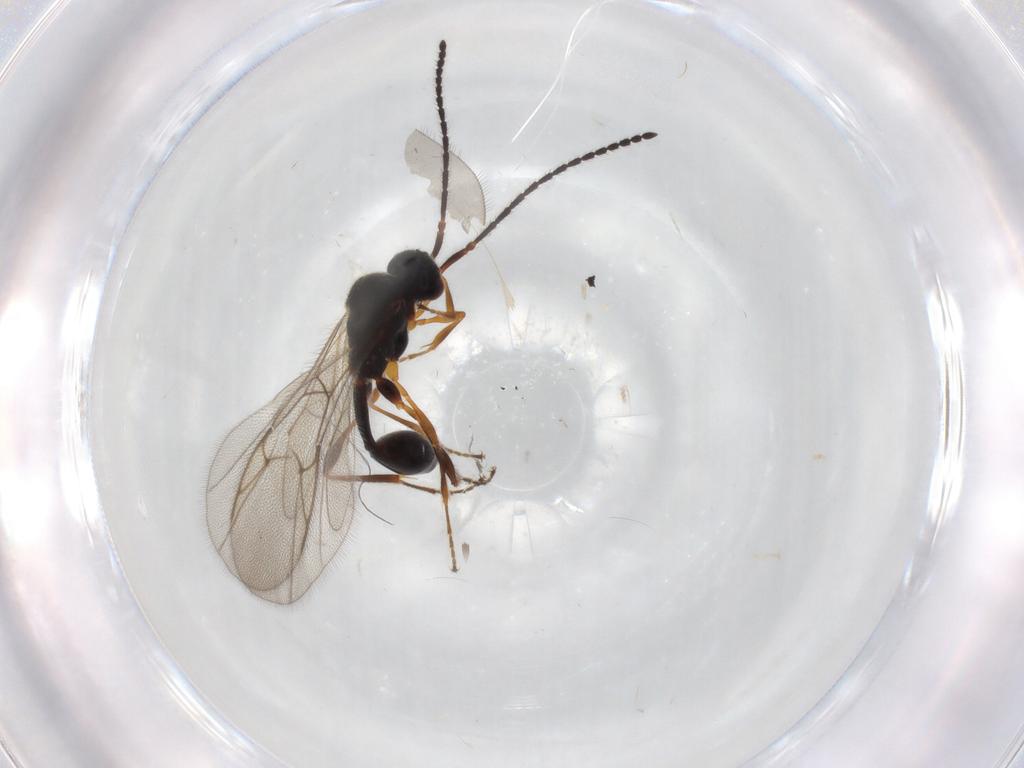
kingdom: Animalia
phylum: Arthropoda
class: Insecta
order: Hymenoptera
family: Diapriidae
